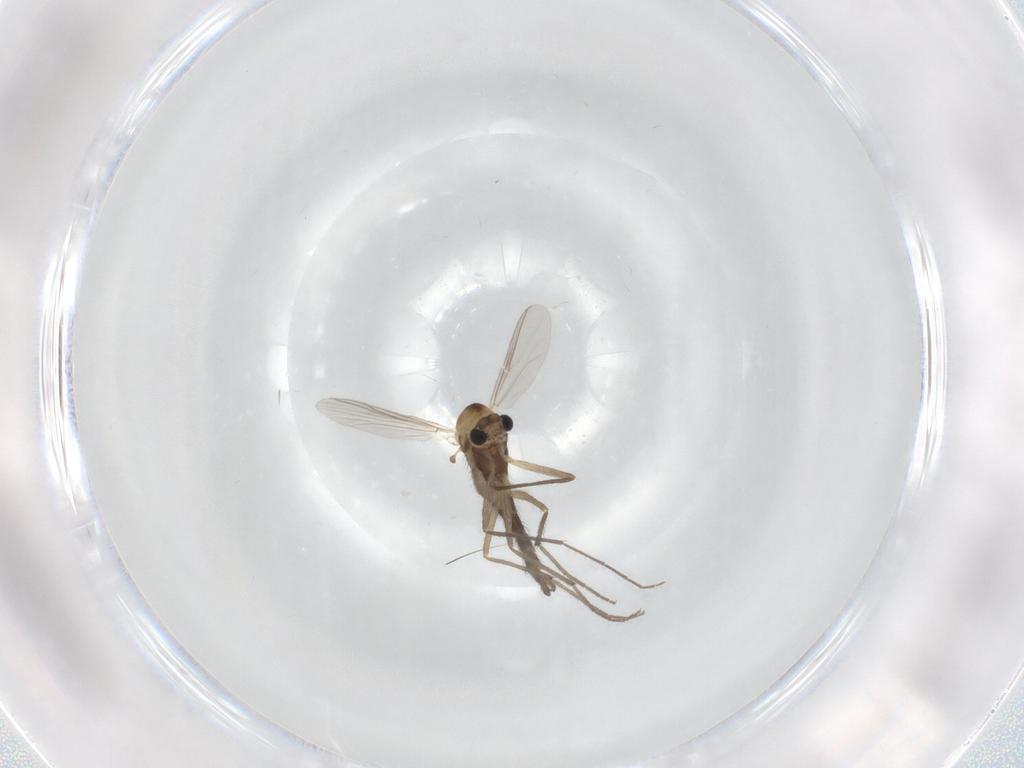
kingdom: Animalia
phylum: Arthropoda
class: Insecta
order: Diptera
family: Chironomidae
